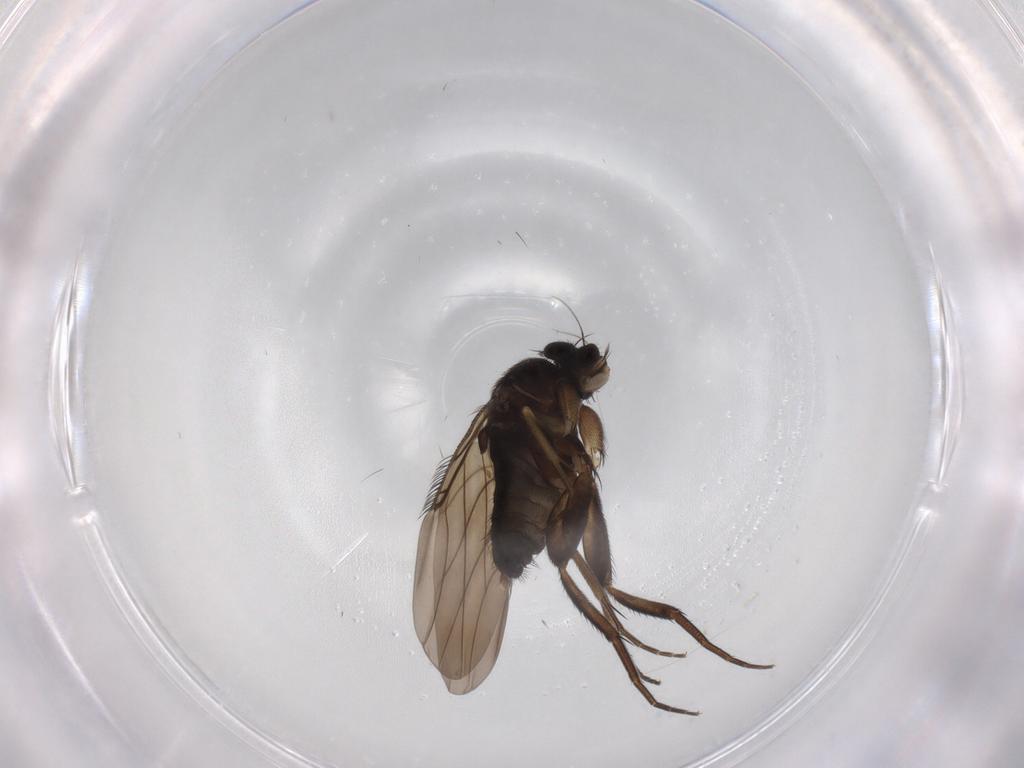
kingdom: Animalia
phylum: Arthropoda
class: Insecta
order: Diptera
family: Phoridae
